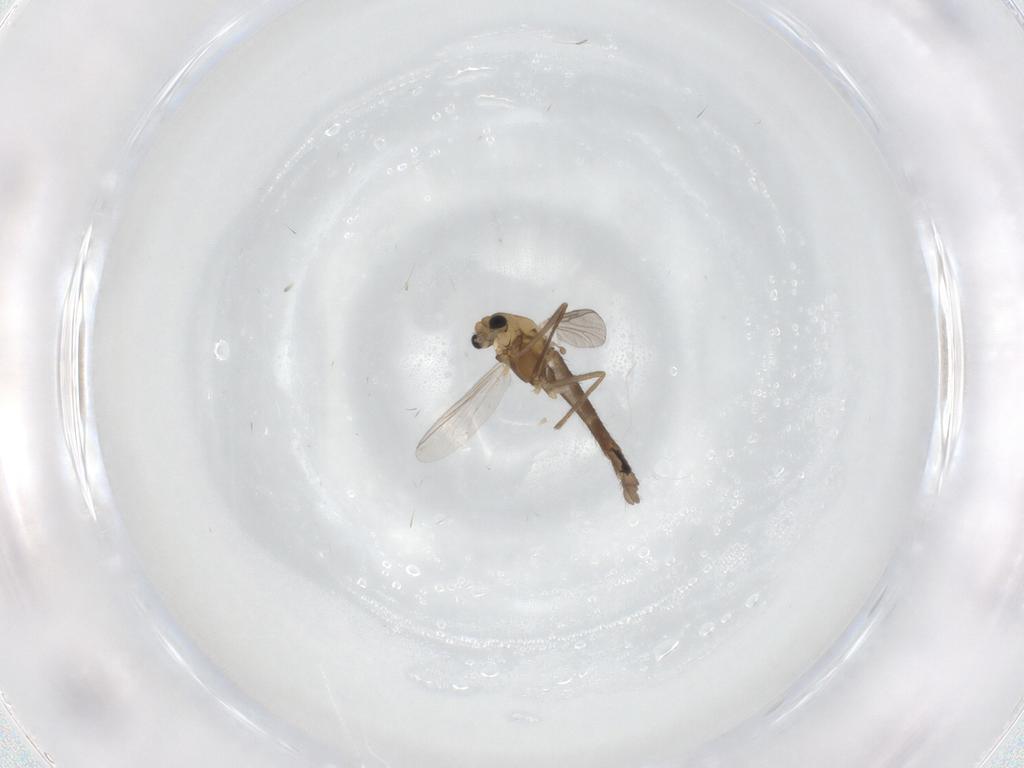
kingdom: Animalia
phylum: Arthropoda
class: Insecta
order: Diptera
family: Chironomidae
